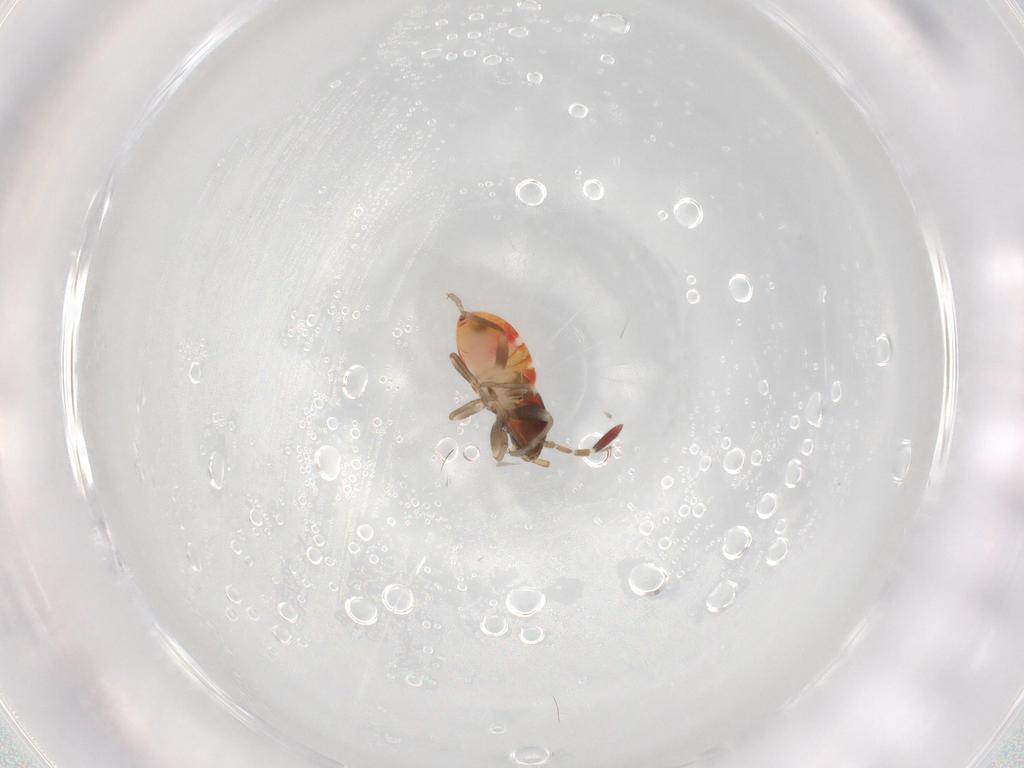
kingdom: Animalia
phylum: Arthropoda
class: Insecta
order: Hemiptera
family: Rhyparochromidae
